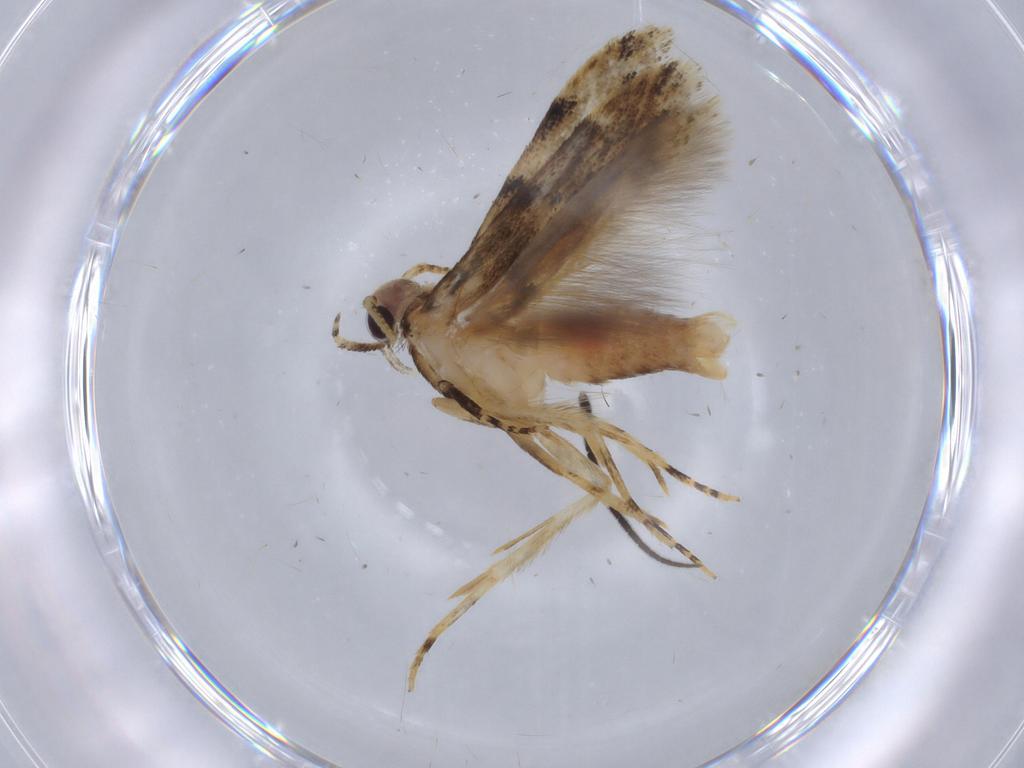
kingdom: Animalia
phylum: Arthropoda
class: Insecta
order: Lepidoptera
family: Gelechiidae
